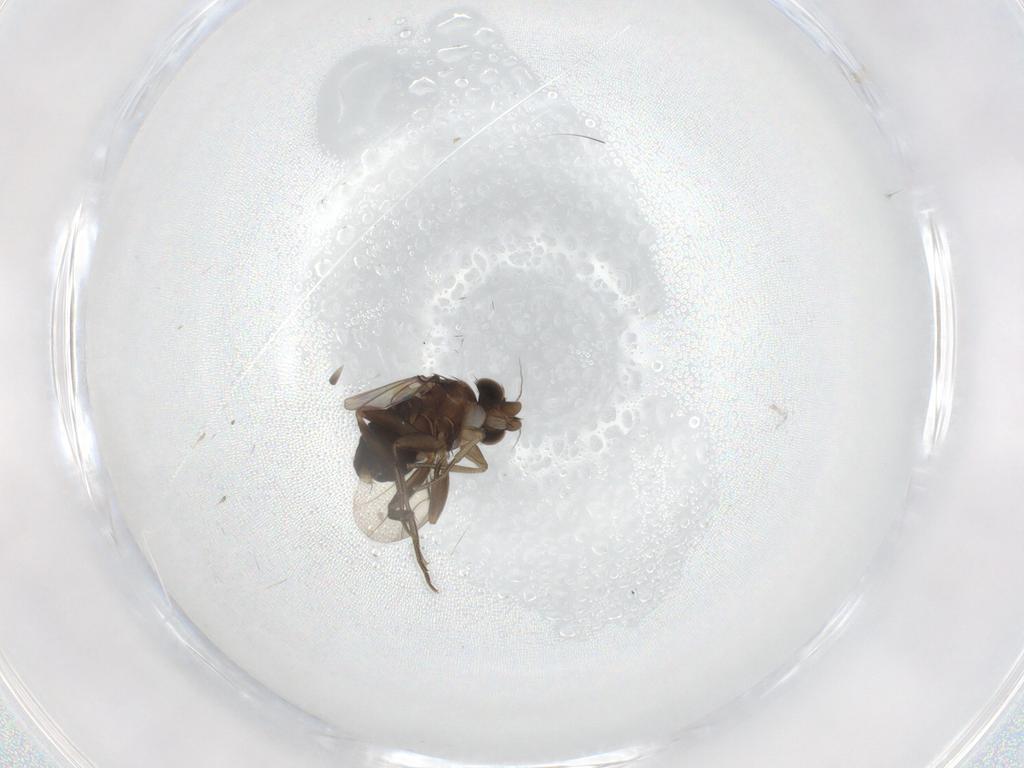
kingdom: Animalia
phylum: Arthropoda
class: Insecta
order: Diptera
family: Phoridae
